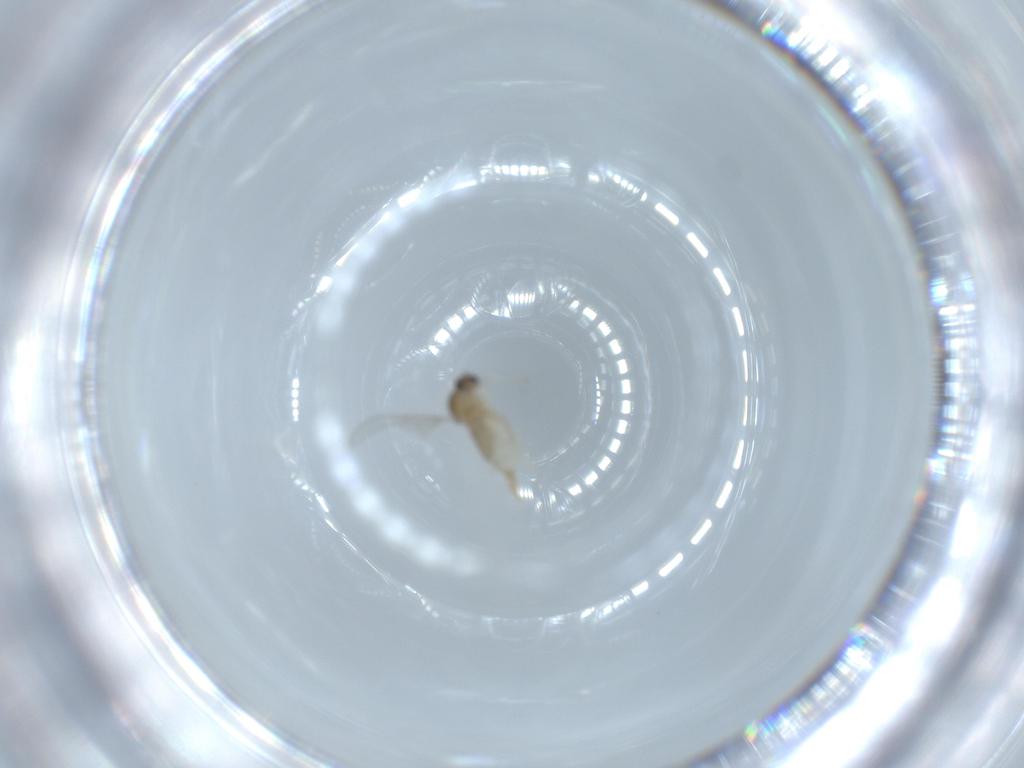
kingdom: Animalia
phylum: Arthropoda
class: Insecta
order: Diptera
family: Cecidomyiidae
